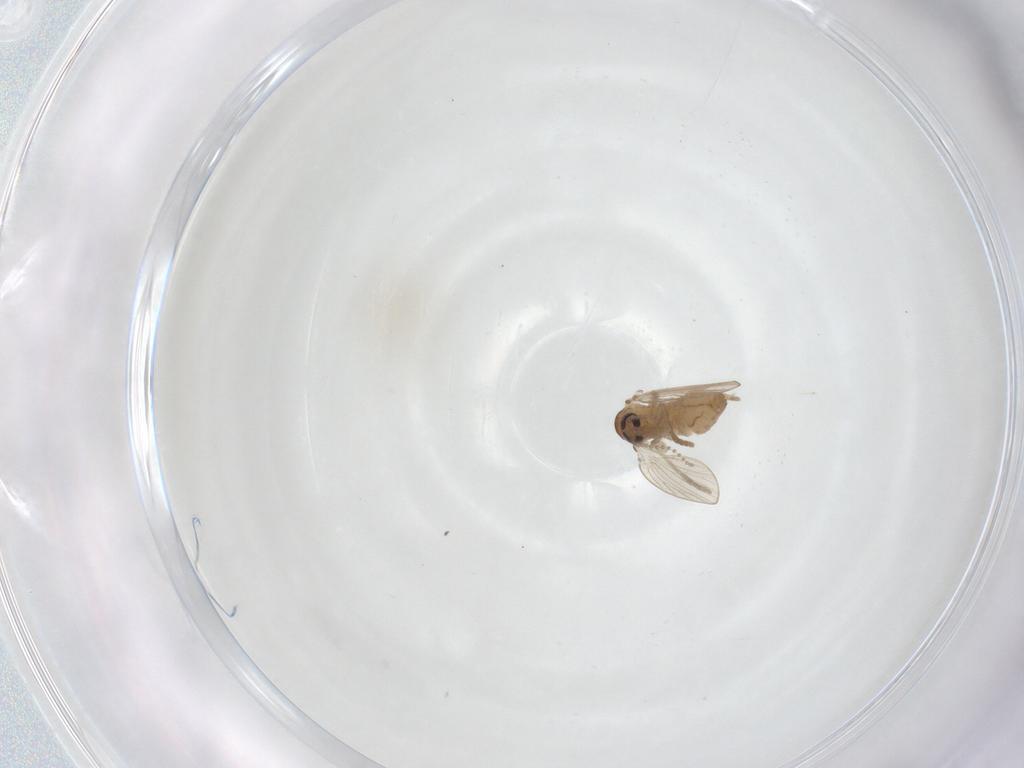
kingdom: Animalia
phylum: Arthropoda
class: Insecta
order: Diptera
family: Psychodidae
